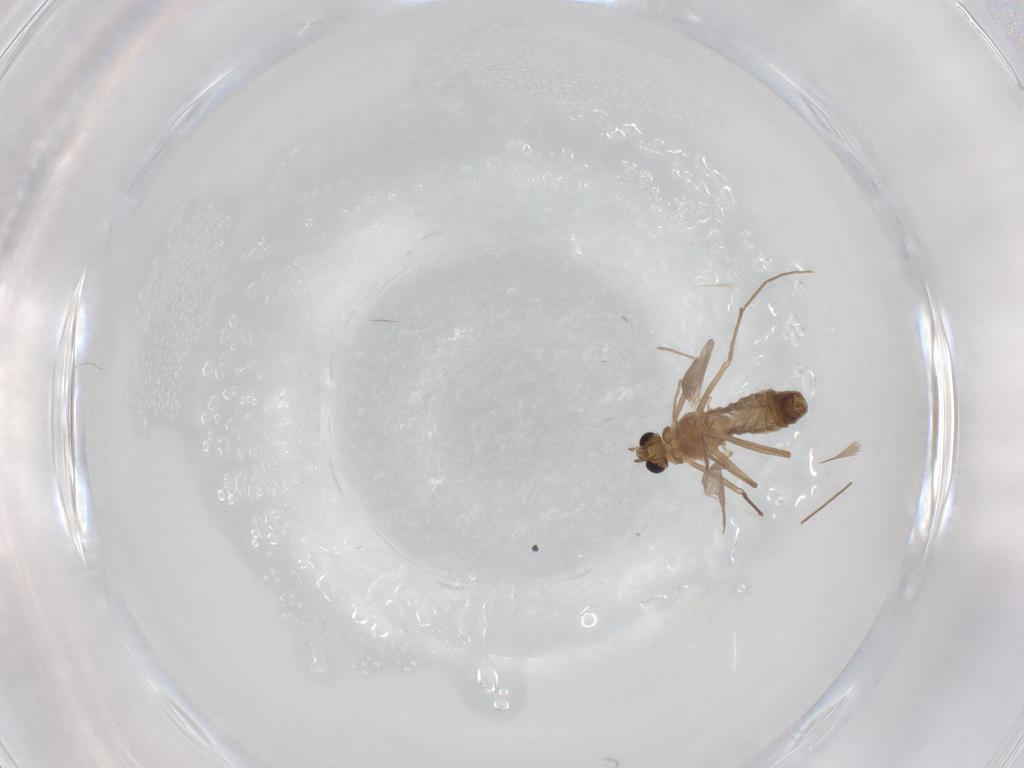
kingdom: Animalia
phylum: Arthropoda
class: Insecta
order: Diptera
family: Chironomidae
